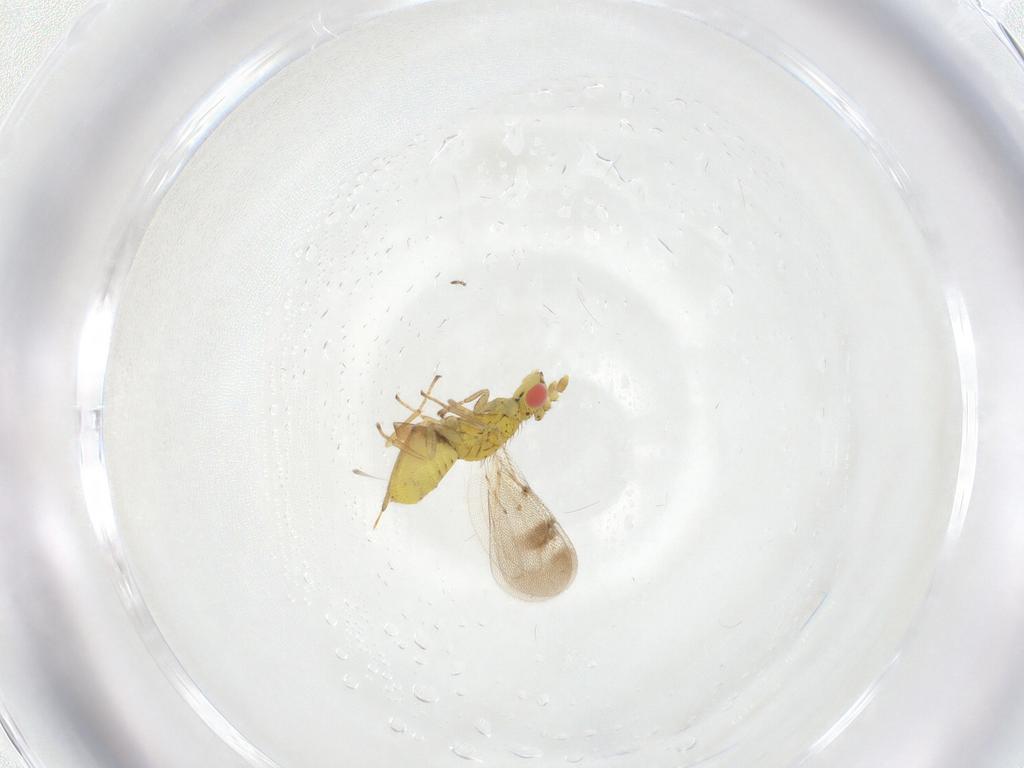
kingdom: Animalia
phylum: Arthropoda
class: Insecta
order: Hymenoptera
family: Eulophidae
